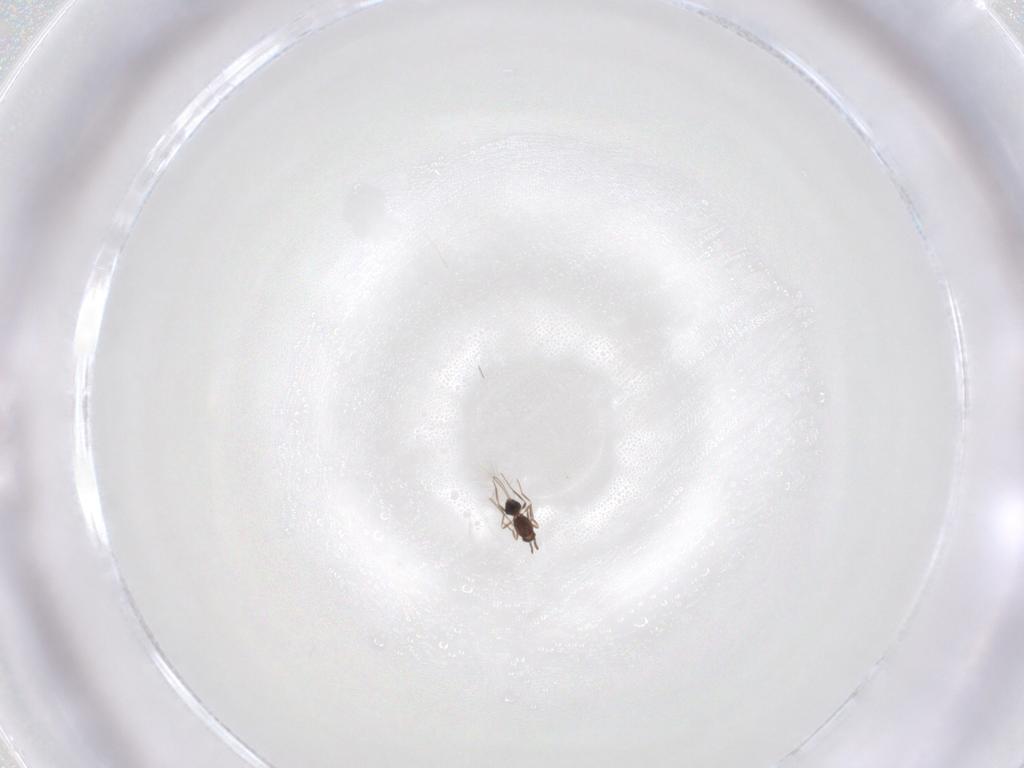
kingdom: Animalia
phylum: Arthropoda
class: Insecta
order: Hymenoptera
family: Mymaridae
